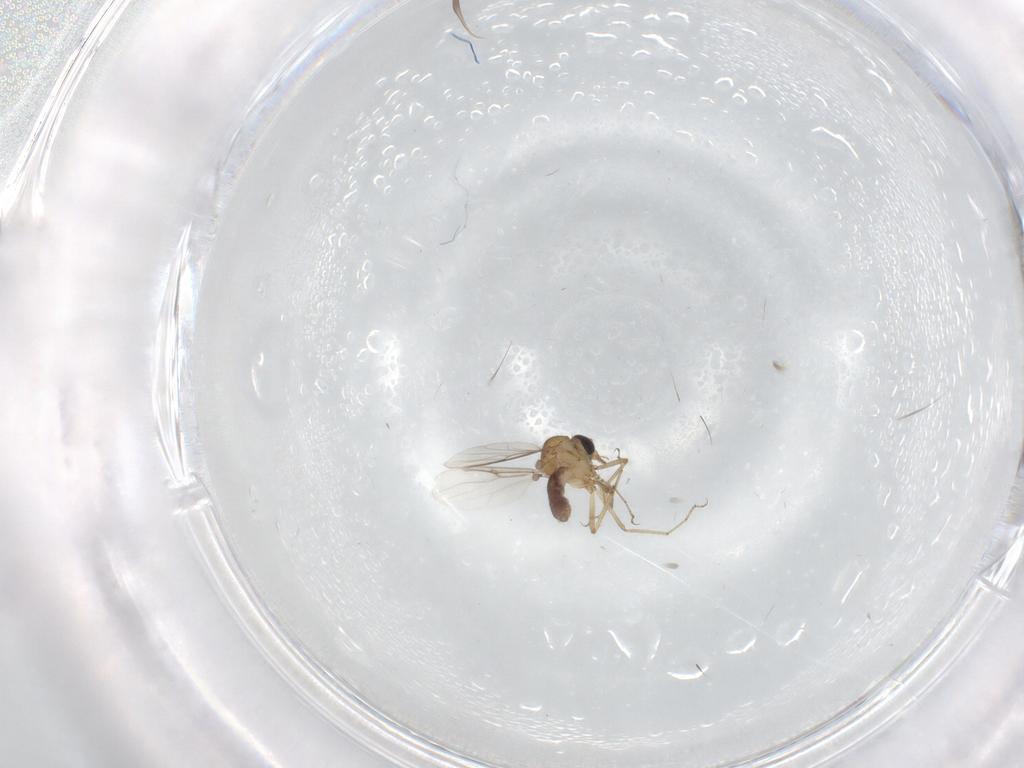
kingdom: Animalia
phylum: Arthropoda
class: Insecta
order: Diptera
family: Ceratopogonidae
